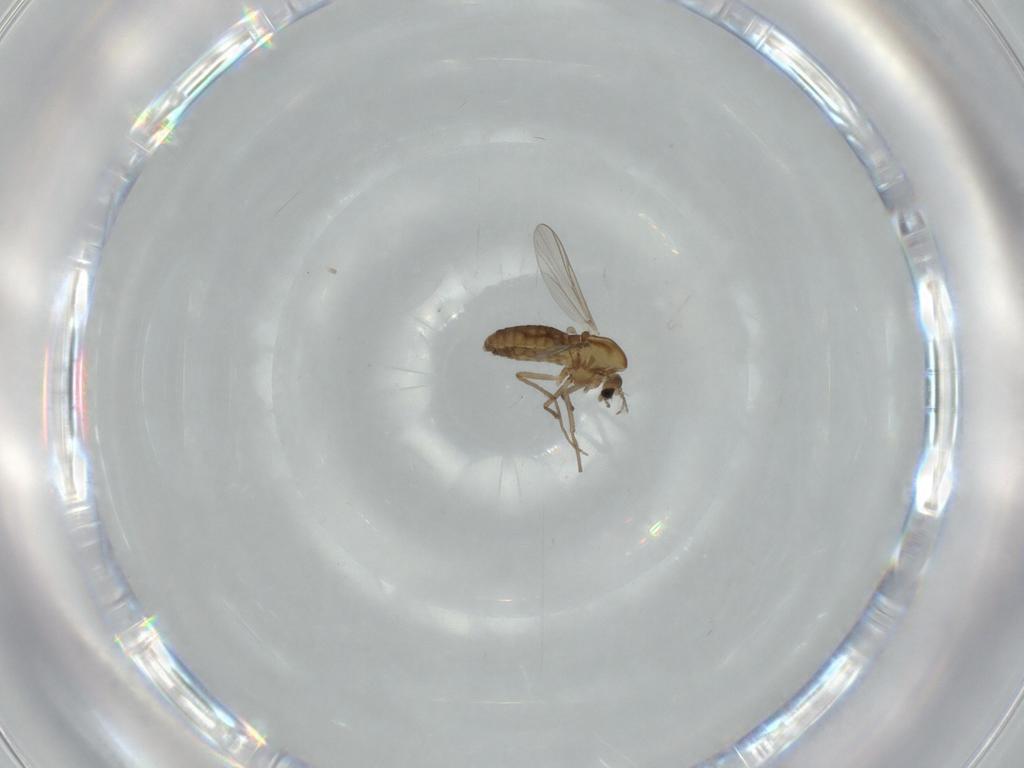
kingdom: Animalia
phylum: Arthropoda
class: Insecta
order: Diptera
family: Chironomidae
